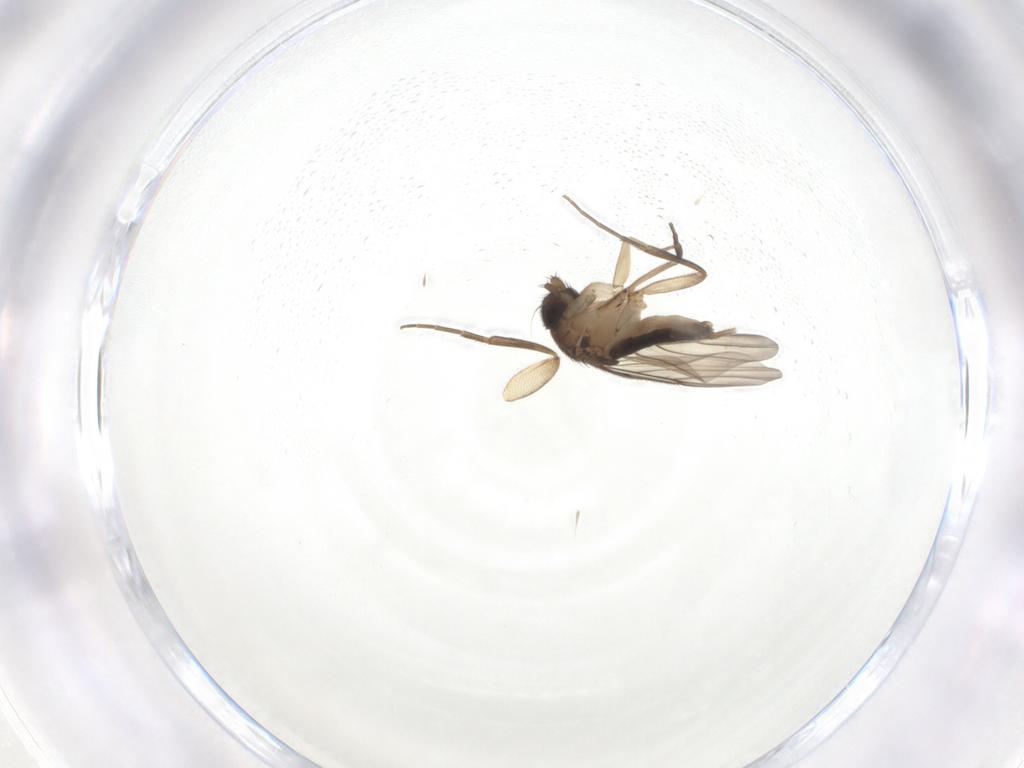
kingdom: Animalia
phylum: Arthropoda
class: Insecta
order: Diptera
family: Phoridae
